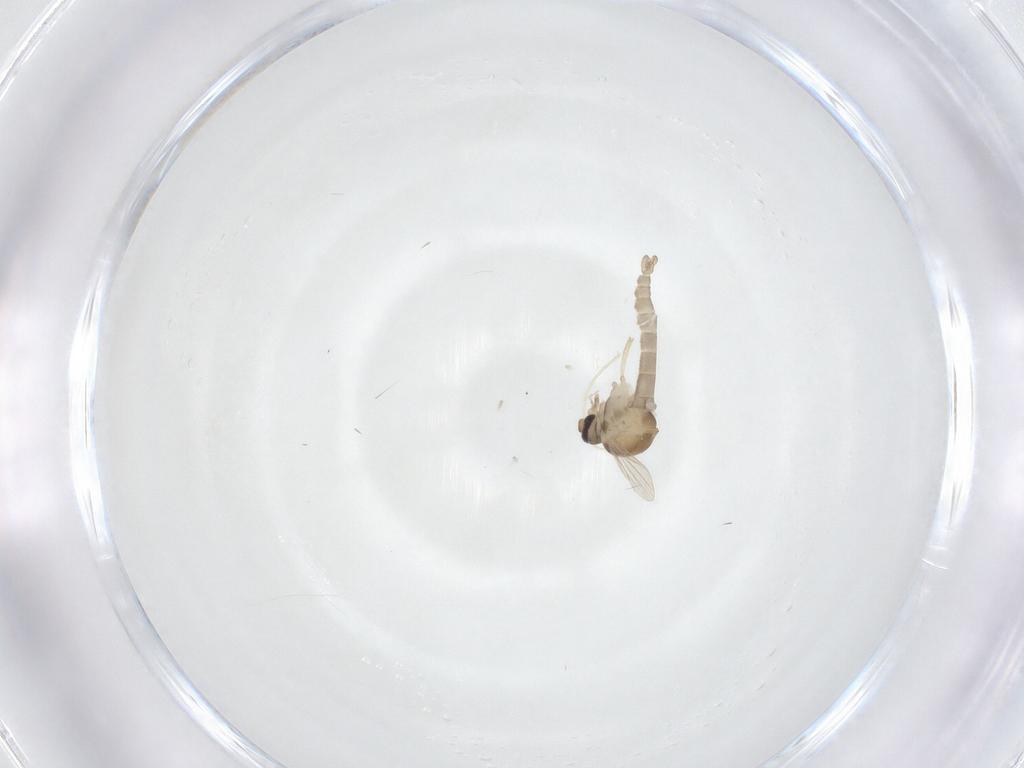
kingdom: Animalia
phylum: Arthropoda
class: Insecta
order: Diptera
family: Ceratopogonidae
